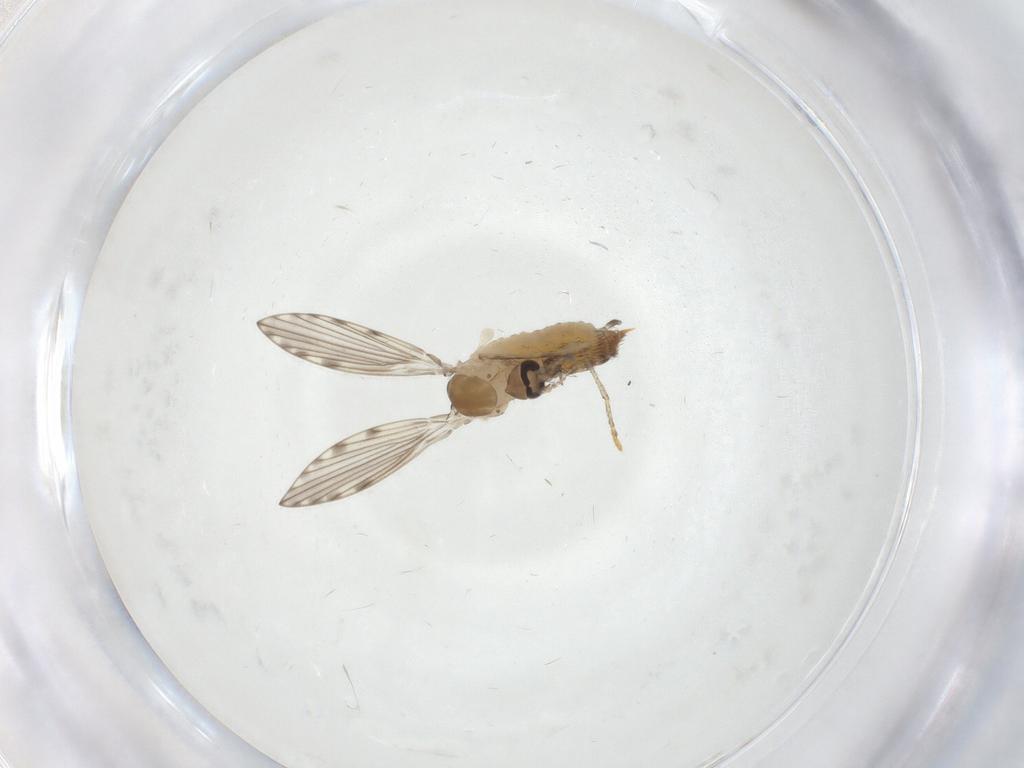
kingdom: Animalia
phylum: Arthropoda
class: Insecta
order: Diptera
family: Psychodidae
